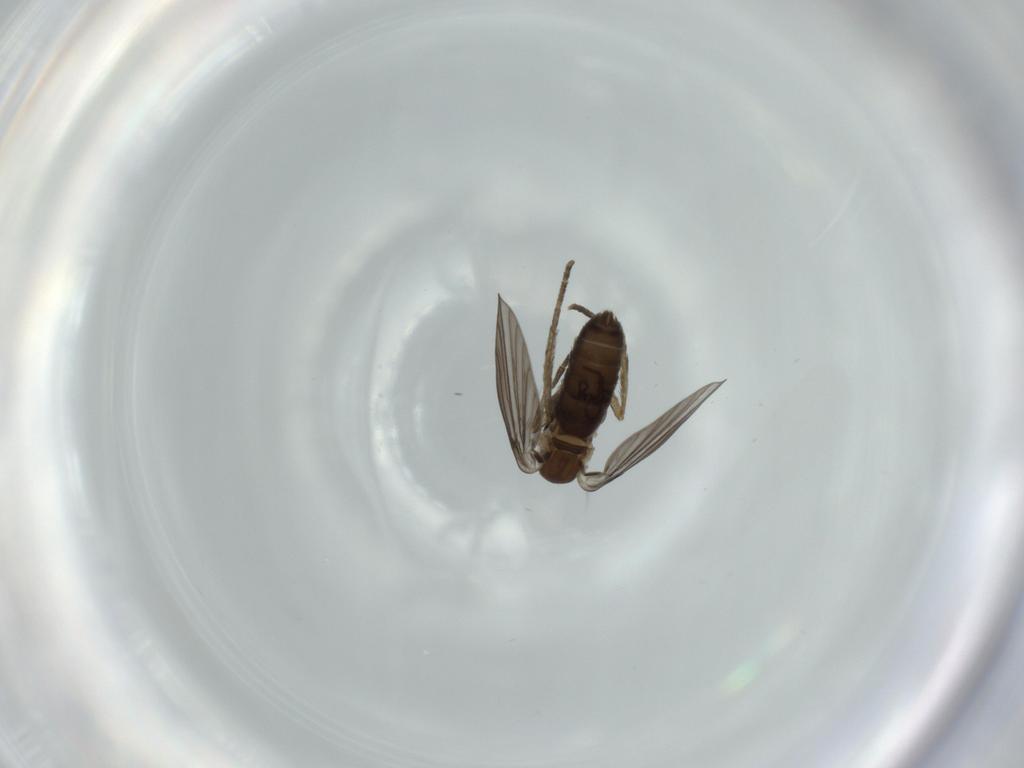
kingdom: Animalia
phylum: Arthropoda
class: Insecta
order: Diptera
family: Psychodidae
